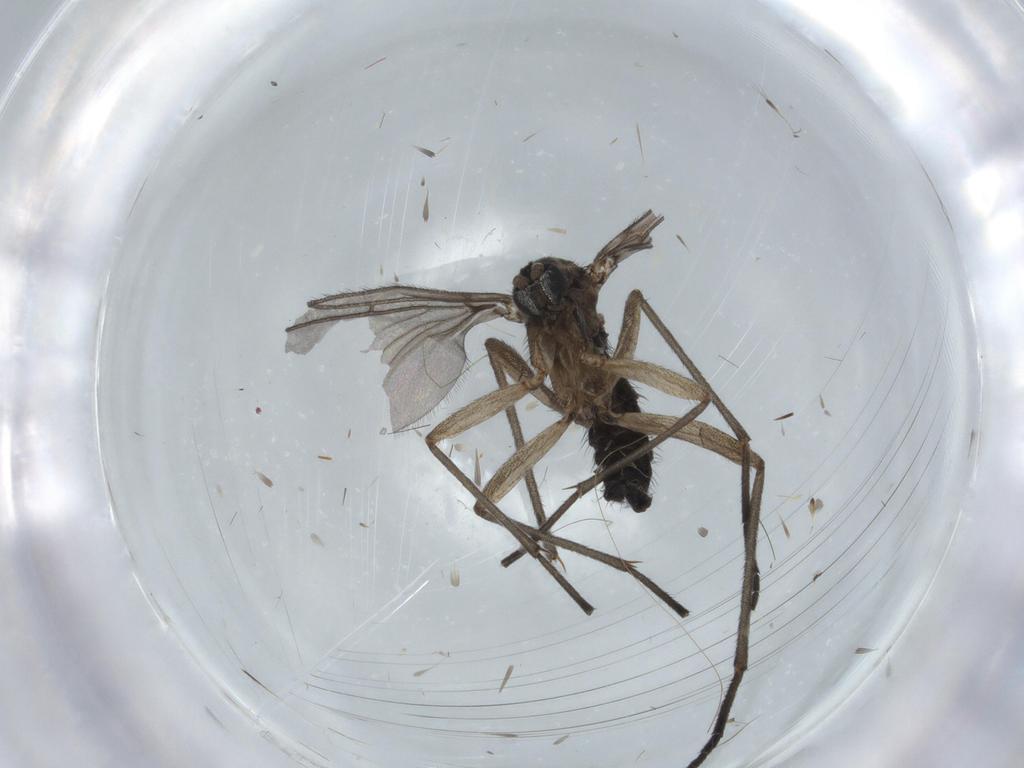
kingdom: Animalia
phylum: Arthropoda
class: Insecta
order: Diptera
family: Sciaridae
